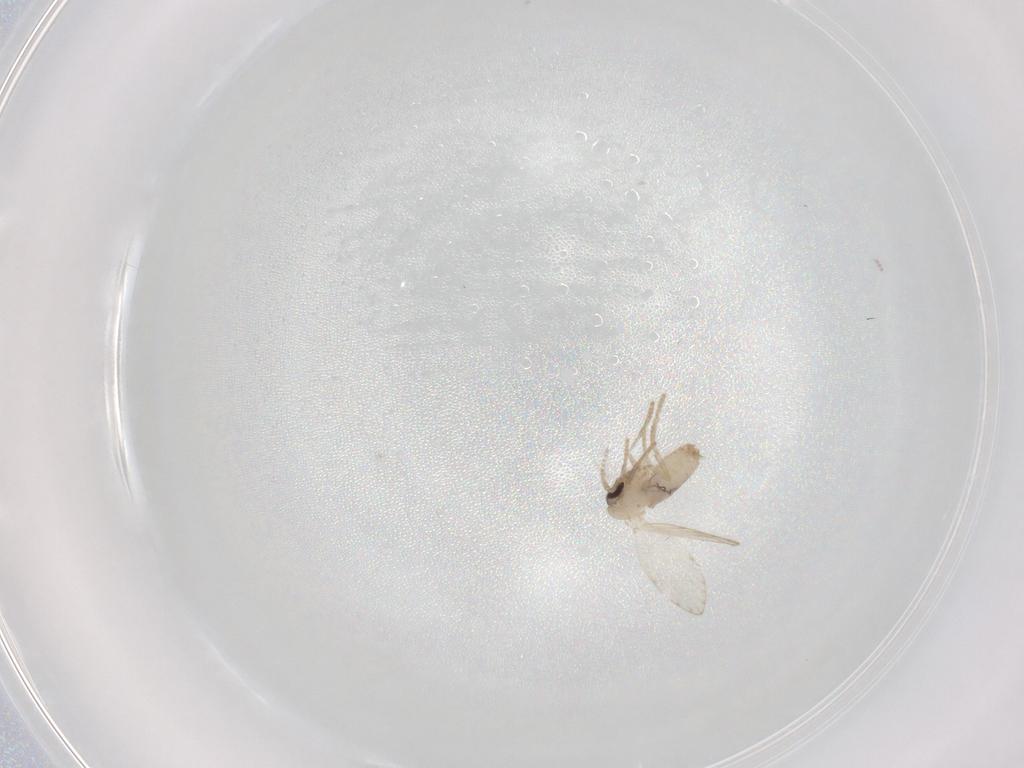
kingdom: Animalia
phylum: Arthropoda
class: Insecta
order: Diptera
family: Psychodidae
